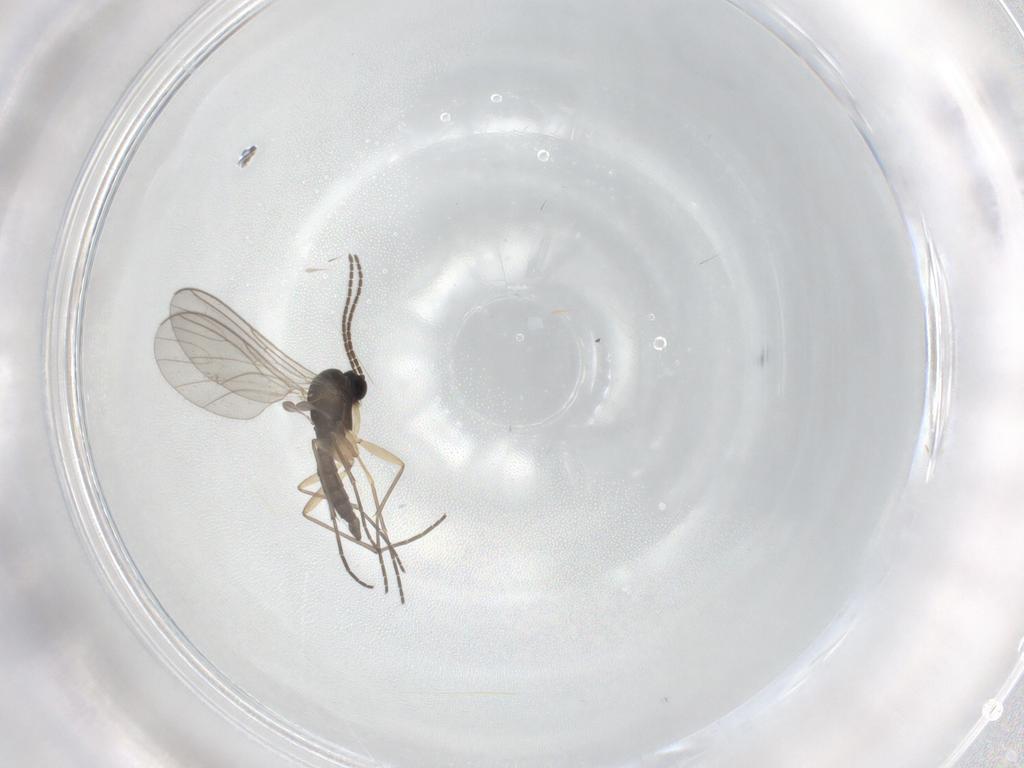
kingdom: Animalia
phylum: Arthropoda
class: Insecta
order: Diptera
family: Sciaridae
